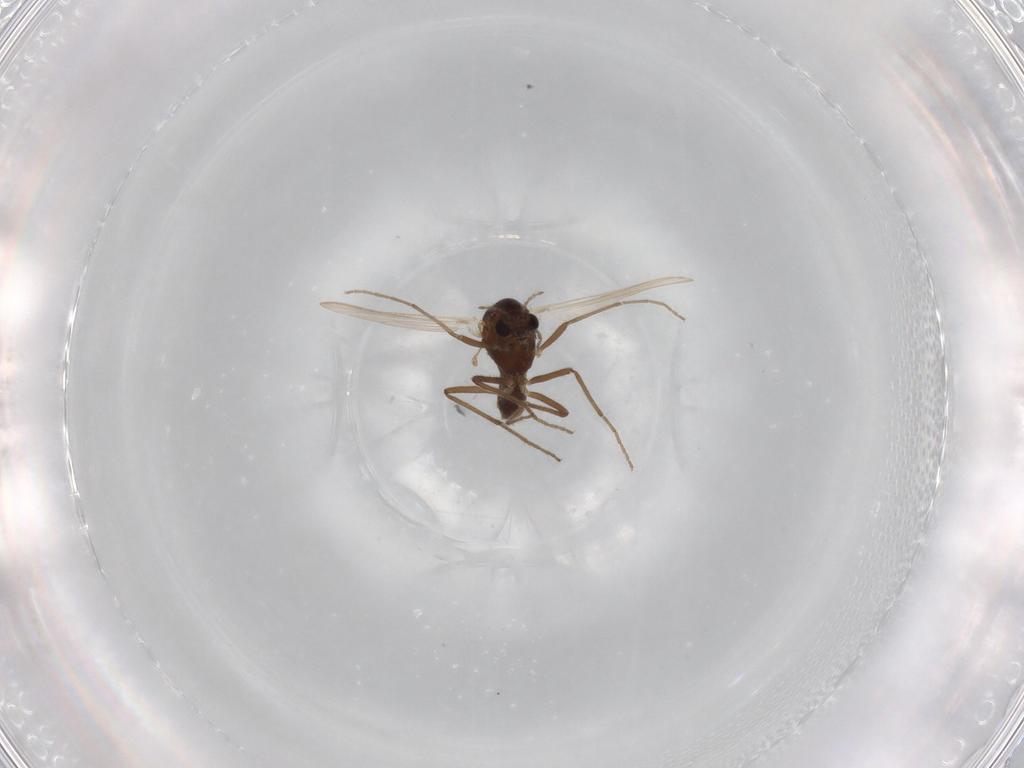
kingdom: Animalia
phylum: Arthropoda
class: Insecta
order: Diptera
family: Chironomidae
